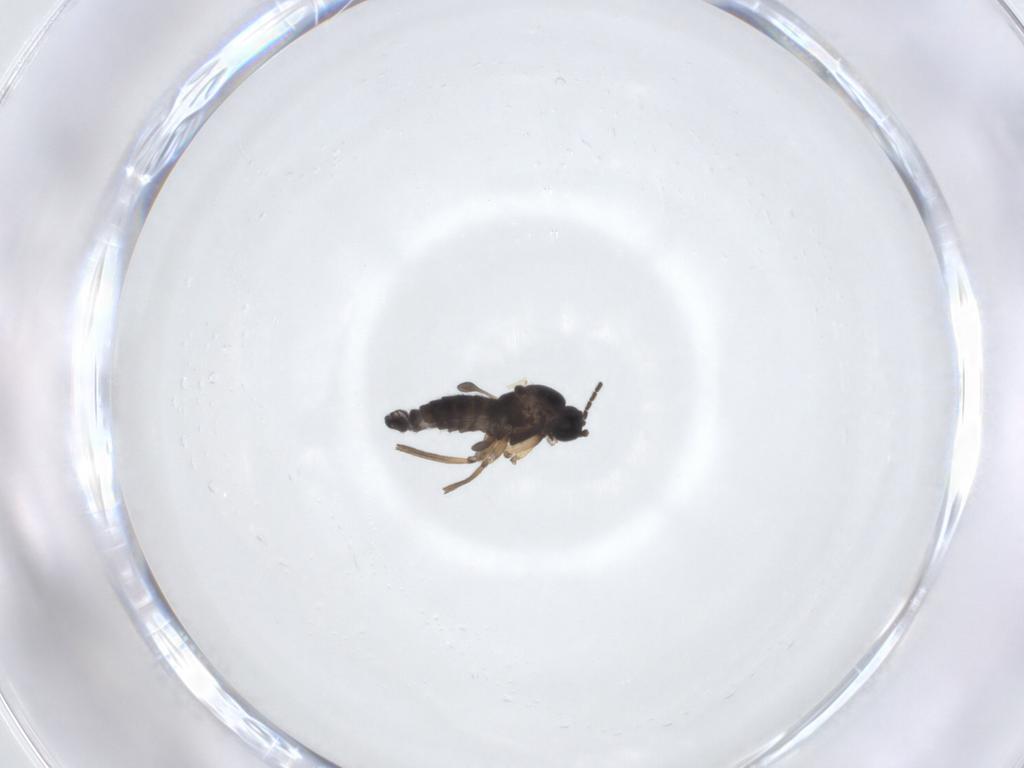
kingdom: Animalia
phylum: Arthropoda
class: Insecta
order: Diptera
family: Sciaridae
